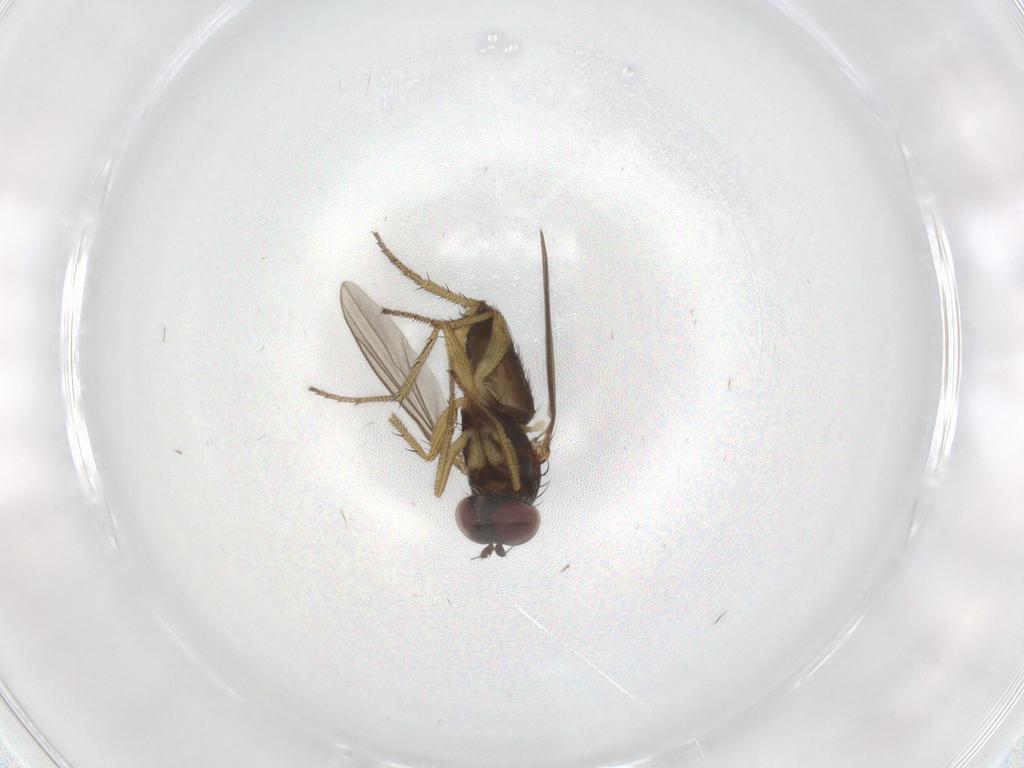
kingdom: Animalia
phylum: Arthropoda
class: Insecta
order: Diptera
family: Dolichopodidae
